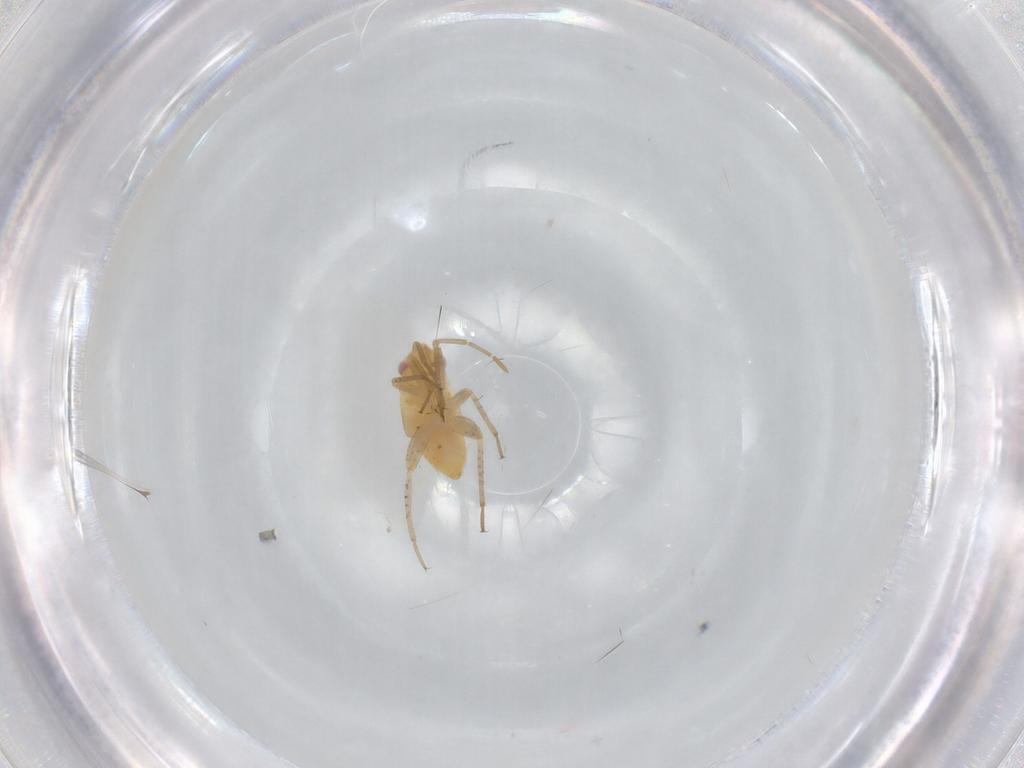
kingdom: Animalia
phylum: Arthropoda
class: Insecta
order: Hemiptera
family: Miridae
